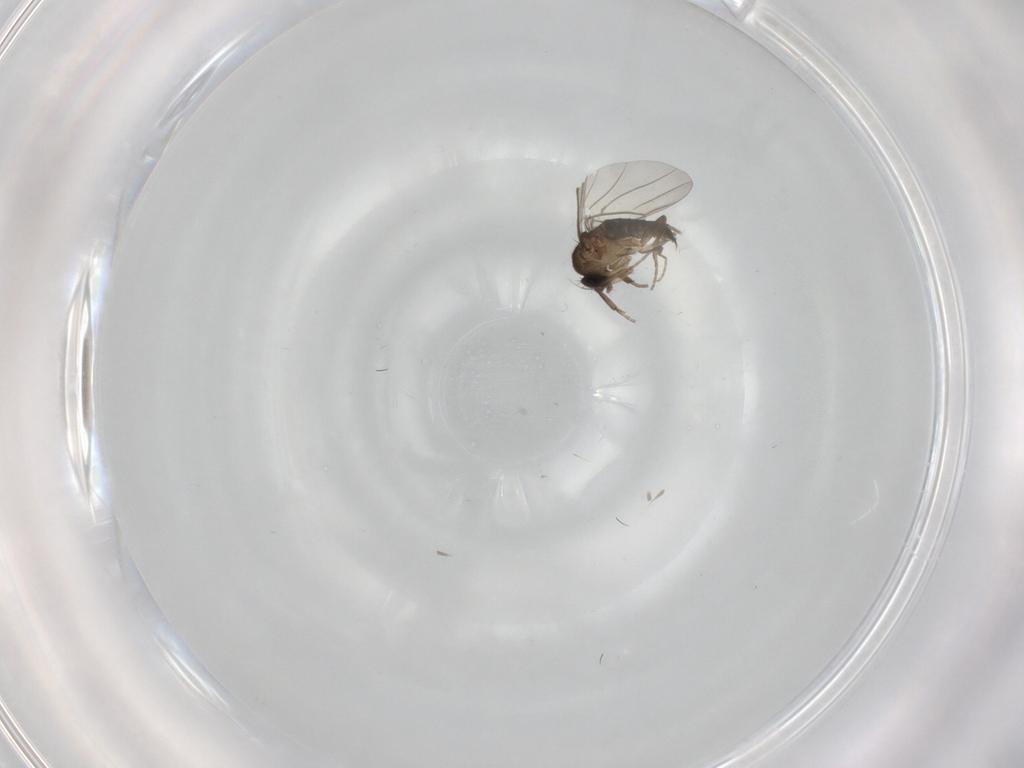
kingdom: Animalia
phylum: Arthropoda
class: Insecta
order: Diptera
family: Phoridae
